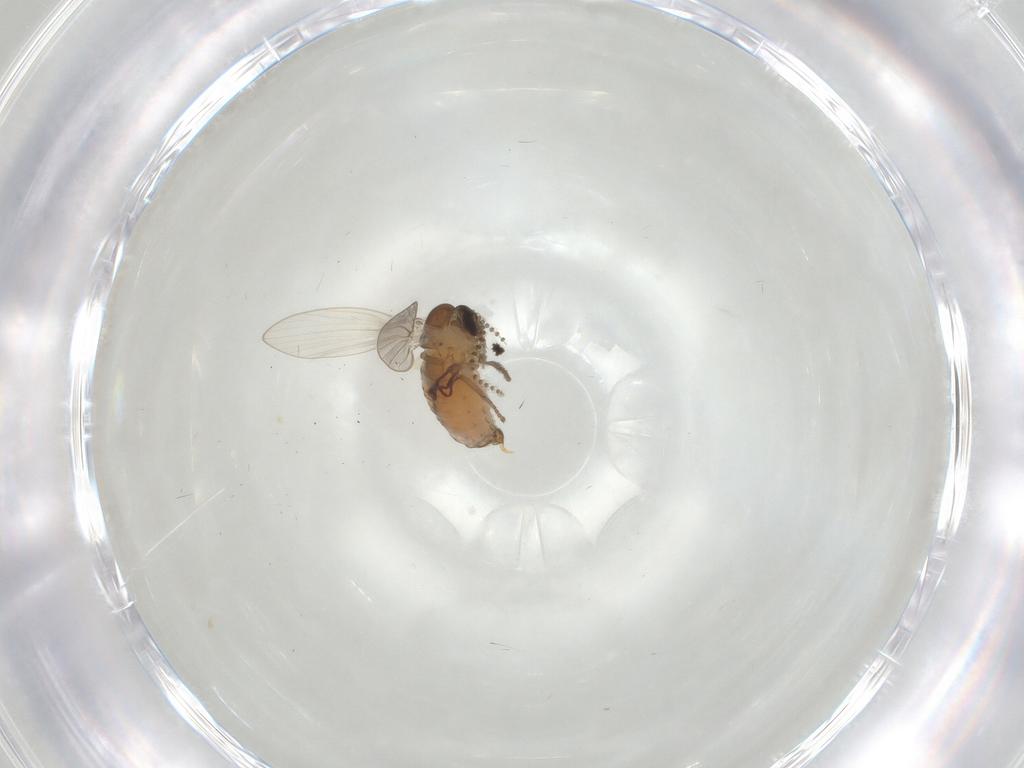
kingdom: Animalia
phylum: Arthropoda
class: Insecta
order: Diptera
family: Psychodidae
